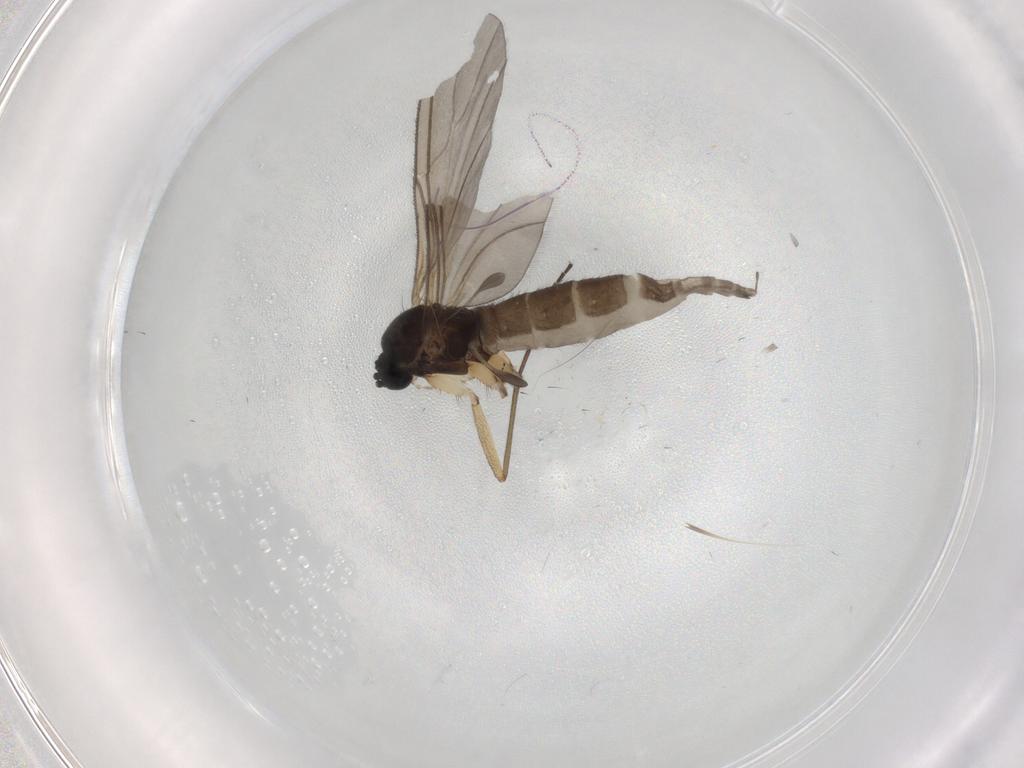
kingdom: Animalia
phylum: Arthropoda
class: Insecta
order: Diptera
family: Sciaridae
